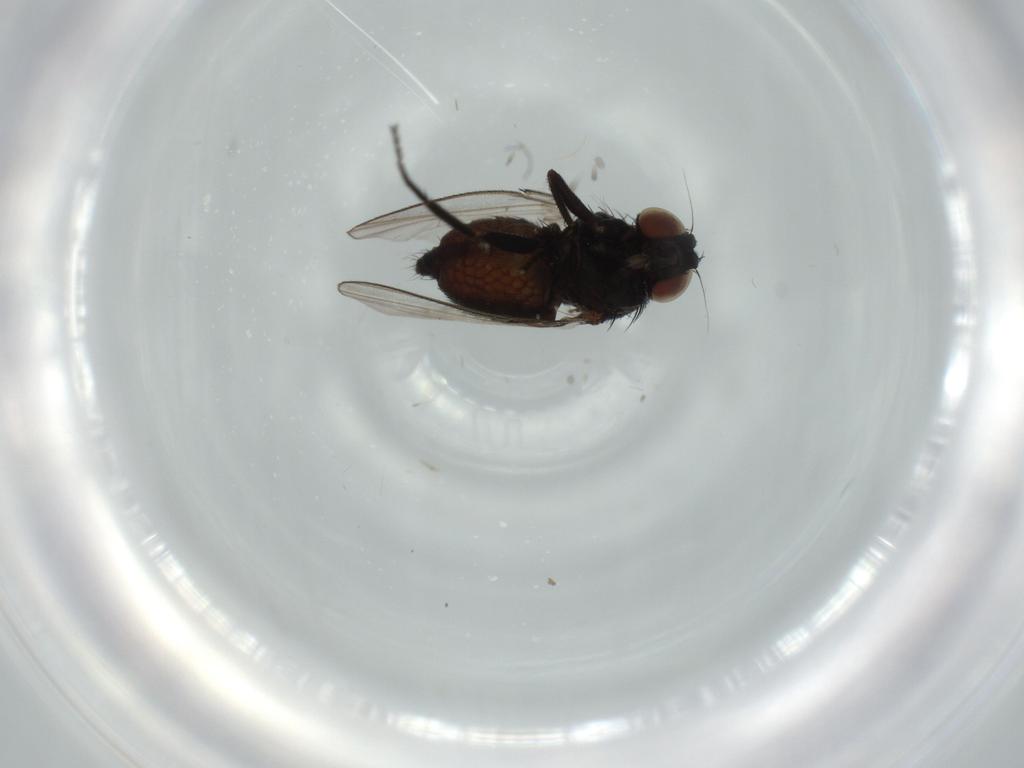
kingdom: Animalia
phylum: Arthropoda
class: Insecta
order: Diptera
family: Milichiidae
